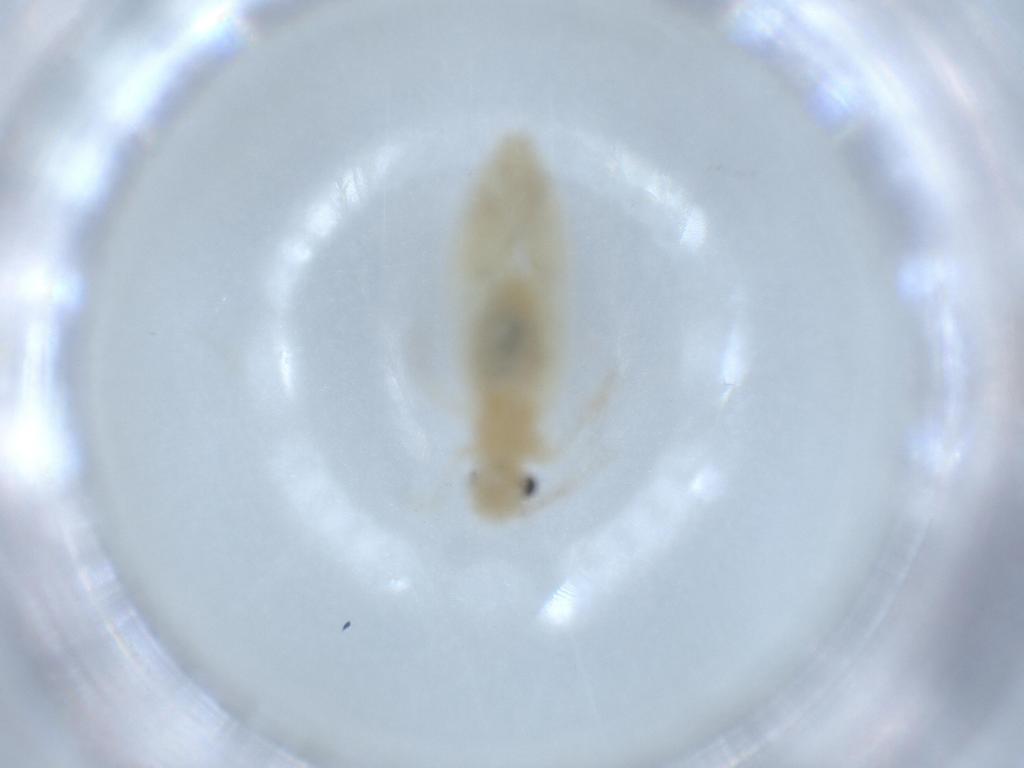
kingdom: Animalia
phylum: Arthropoda
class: Insecta
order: Psocodea
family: Caeciliusidae
